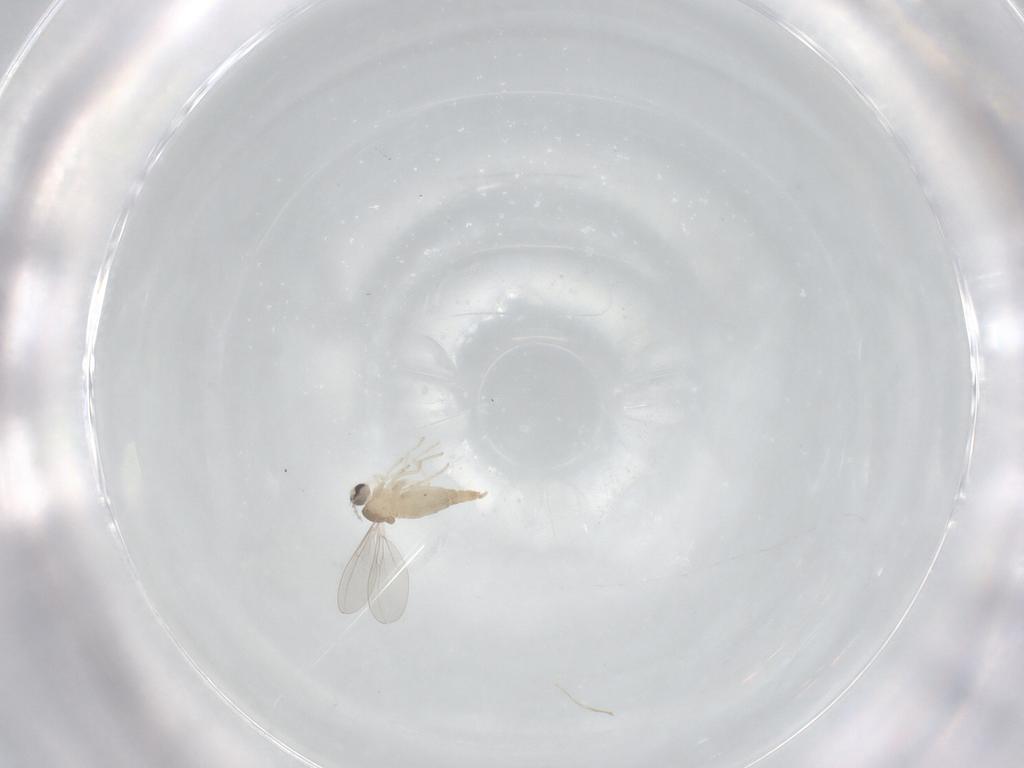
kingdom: Animalia
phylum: Arthropoda
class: Insecta
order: Diptera
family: Cecidomyiidae
